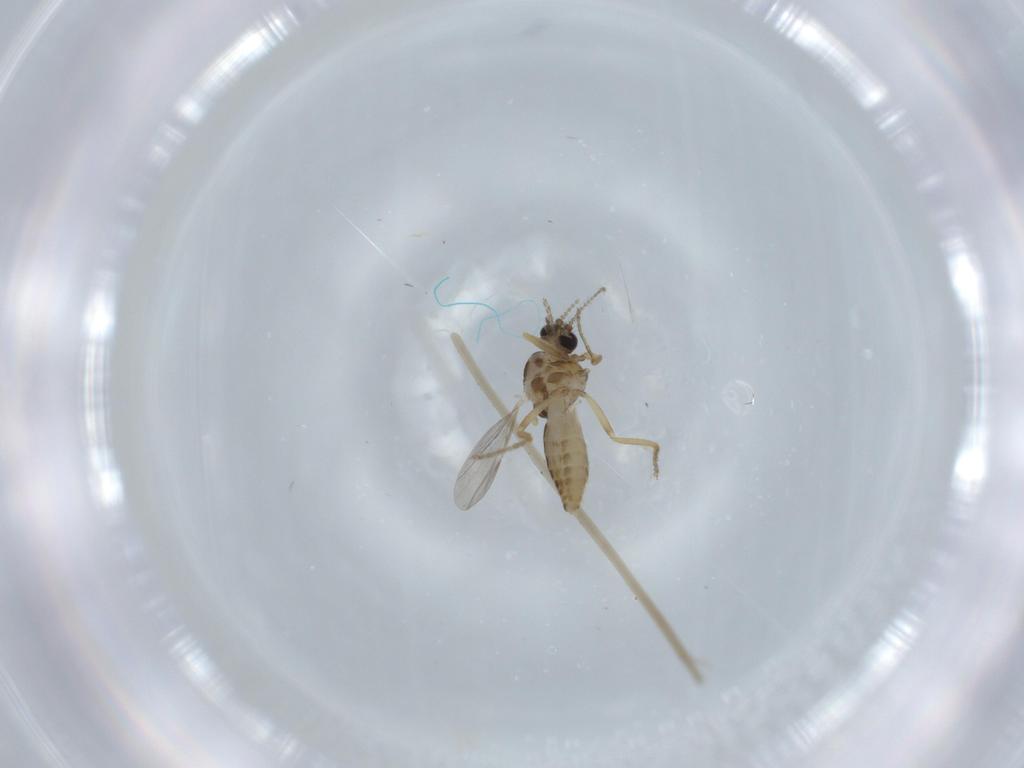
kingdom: Animalia
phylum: Arthropoda
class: Insecta
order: Diptera
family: Ceratopogonidae
